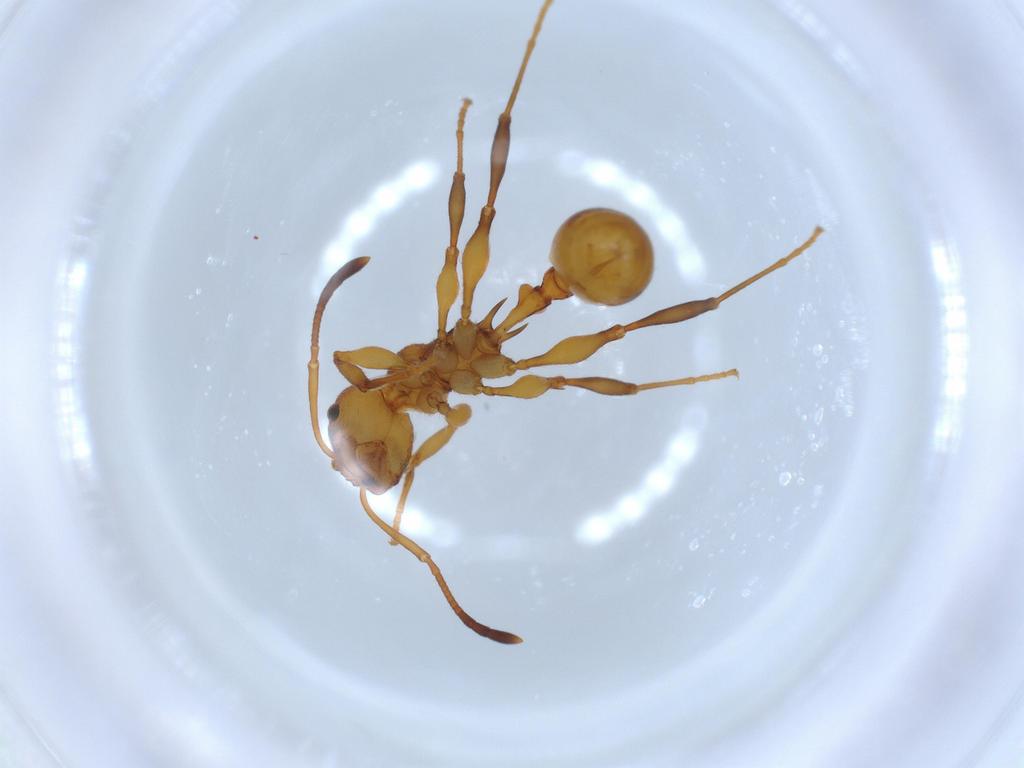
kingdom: Animalia
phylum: Arthropoda
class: Insecta
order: Hymenoptera
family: Formicidae
